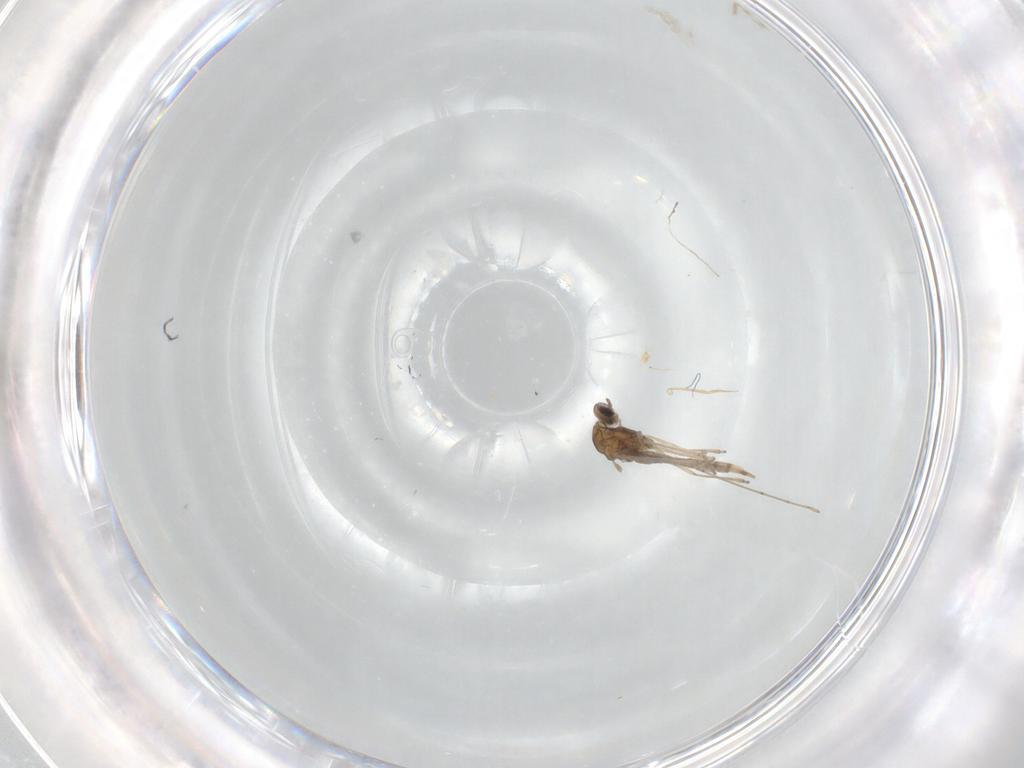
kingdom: Animalia
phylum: Arthropoda
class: Insecta
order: Diptera
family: Cecidomyiidae
